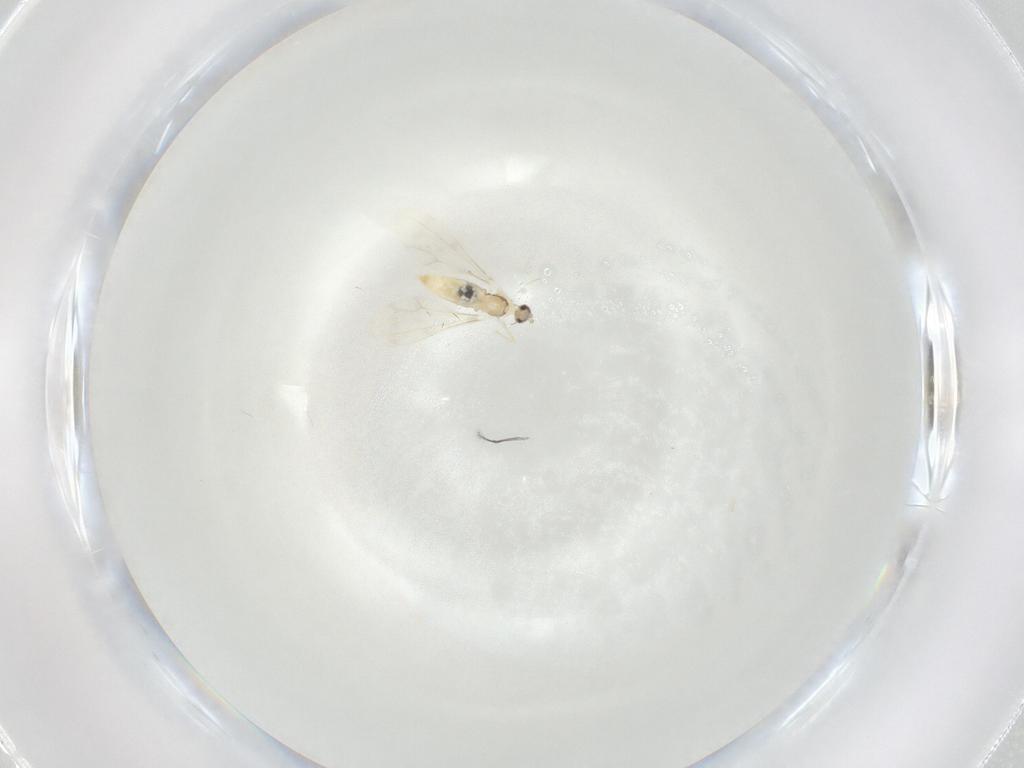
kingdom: Animalia
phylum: Arthropoda
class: Insecta
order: Diptera
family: Cecidomyiidae
